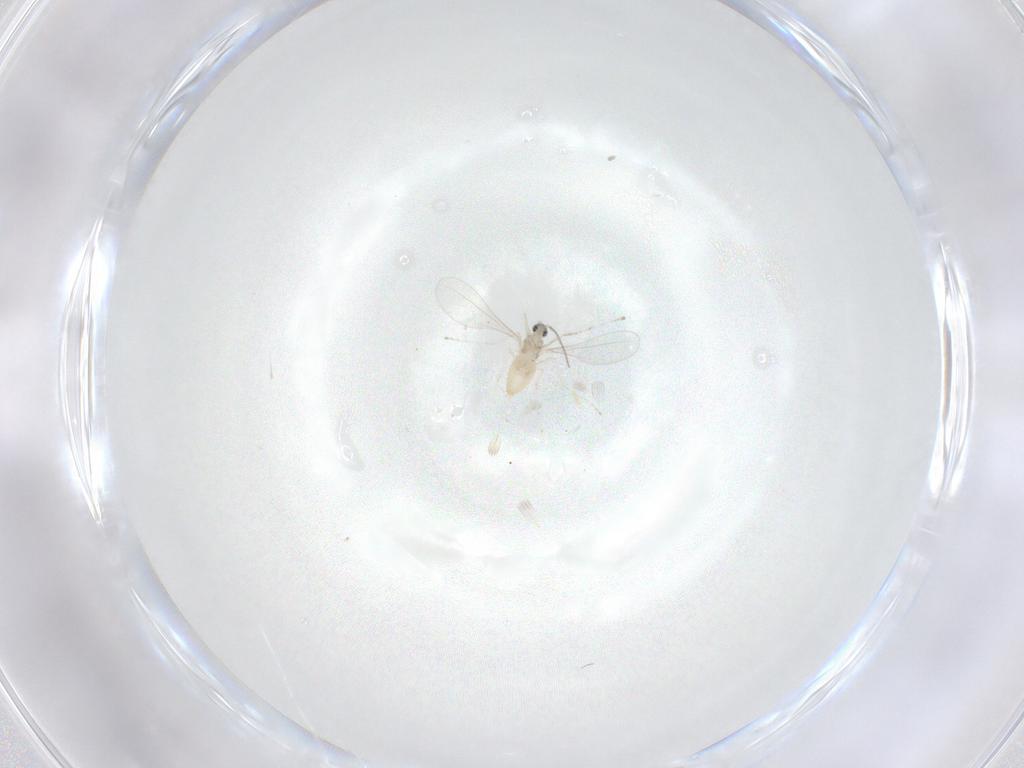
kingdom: Animalia
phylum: Arthropoda
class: Insecta
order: Diptera
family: Cecidomyiidae
